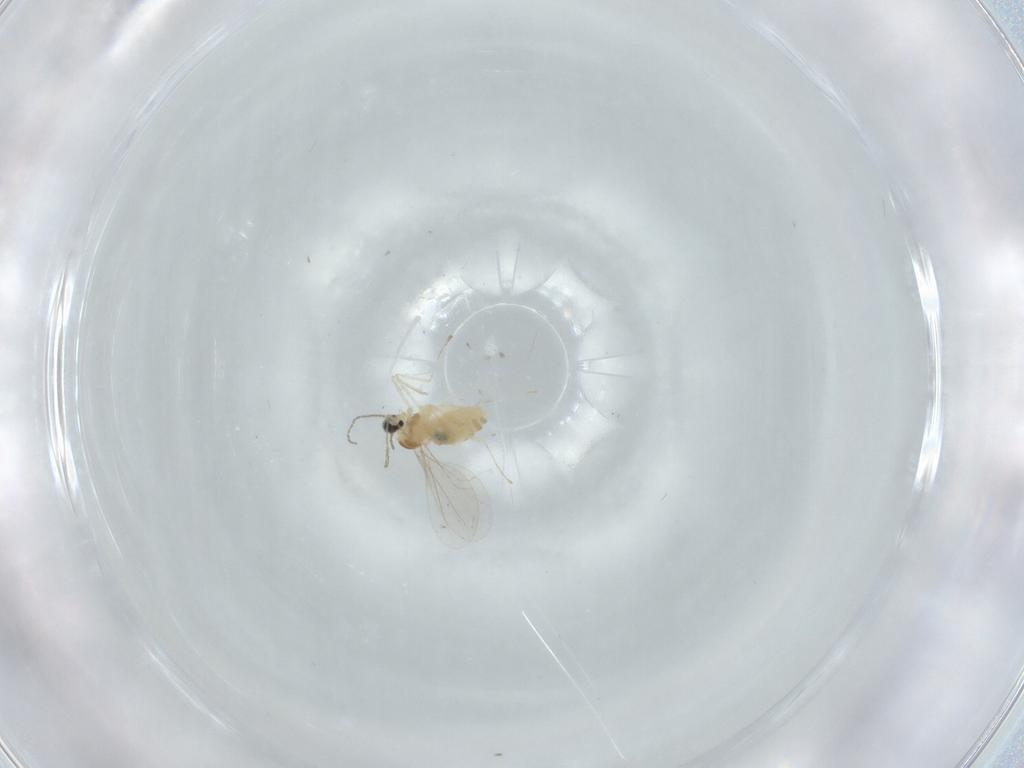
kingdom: Animalia
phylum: Arthropoda
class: Insecta
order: Diptera
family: Cecidomyiidae
